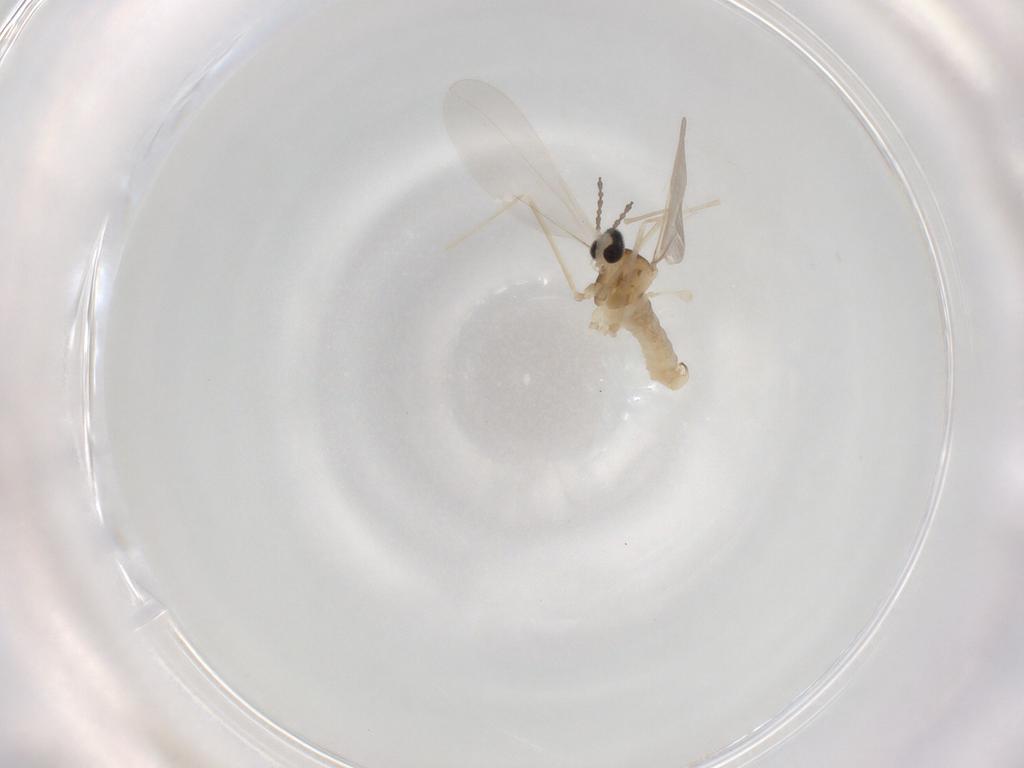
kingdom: Animalia
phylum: Arthropoda
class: Insecta
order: Diptera
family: Cecidomyiidae
